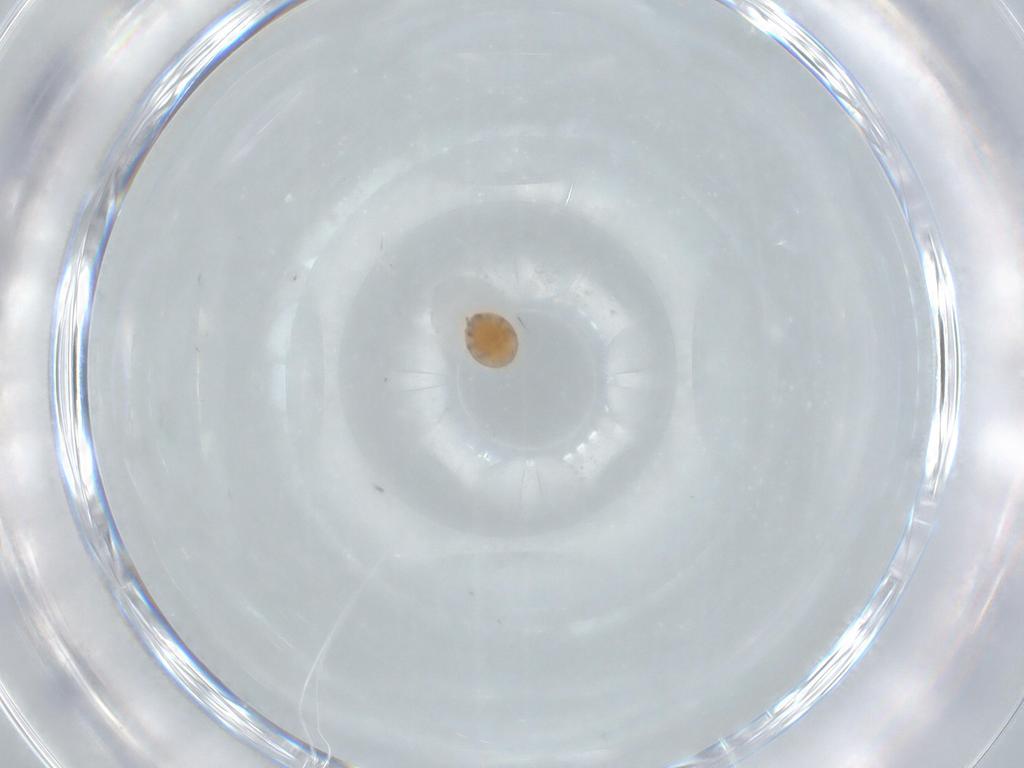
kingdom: Animalia
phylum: Arthropoda
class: Arachnida
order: Mesostigmata
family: Trematuridae
